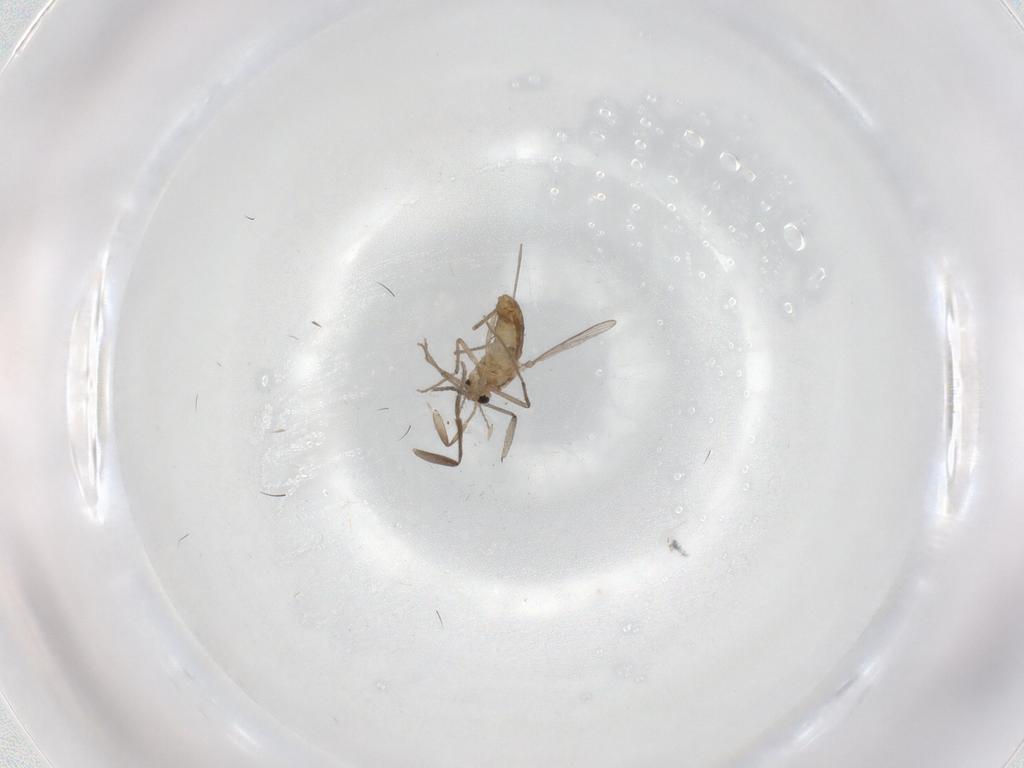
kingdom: Animalia
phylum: Arthropoda
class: Insecta
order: Diptera
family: Chironomidae
